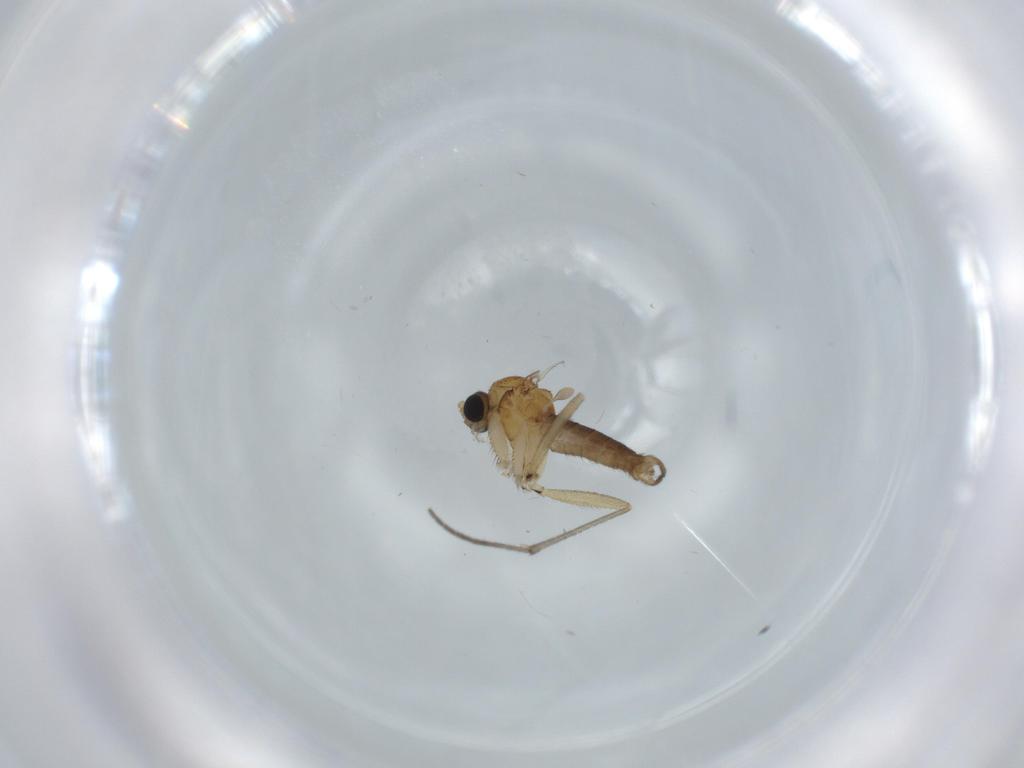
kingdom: Animalia
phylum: Arthropoda
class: Insecta
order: Diptera
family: Sciaridae
